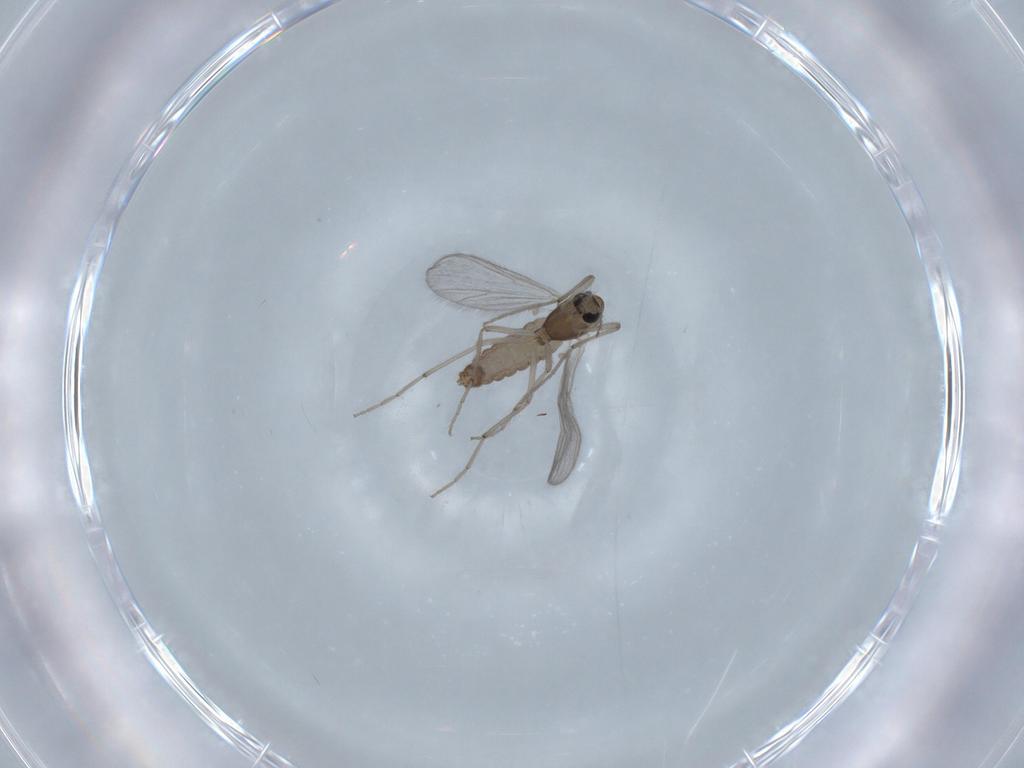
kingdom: Animalia
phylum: Arthropoda
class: Insecta
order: Diptera
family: Chironomidae
